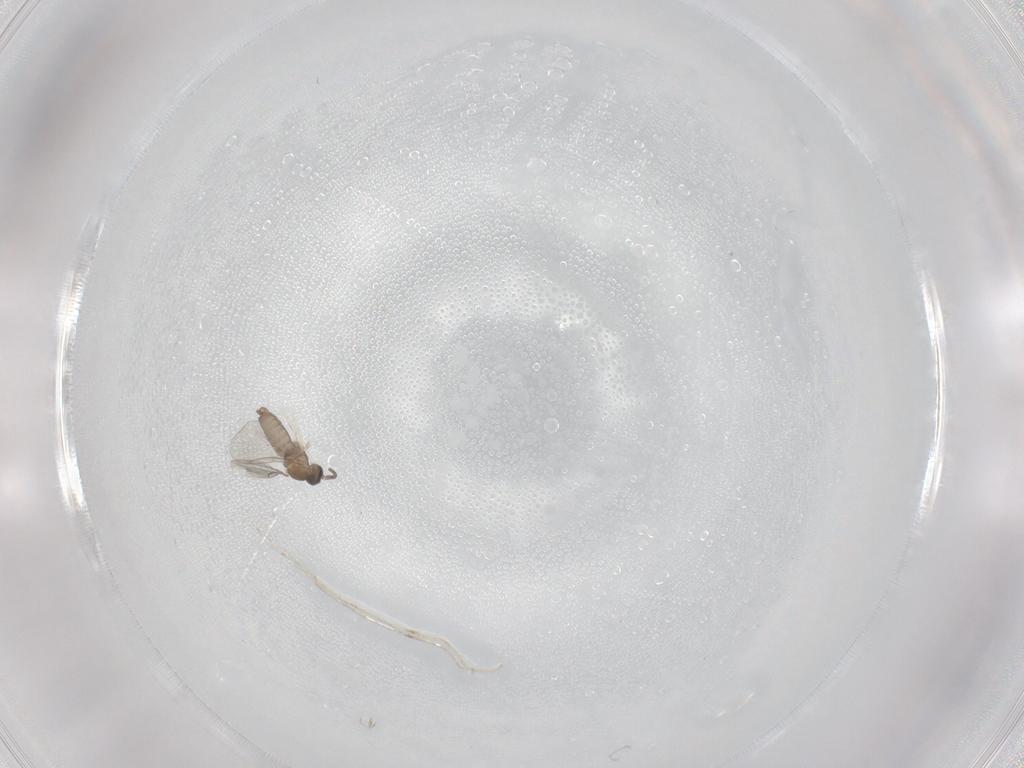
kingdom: Animalia
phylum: Arthropoda
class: Insecta
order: Diptera
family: Cecidomyiidae
